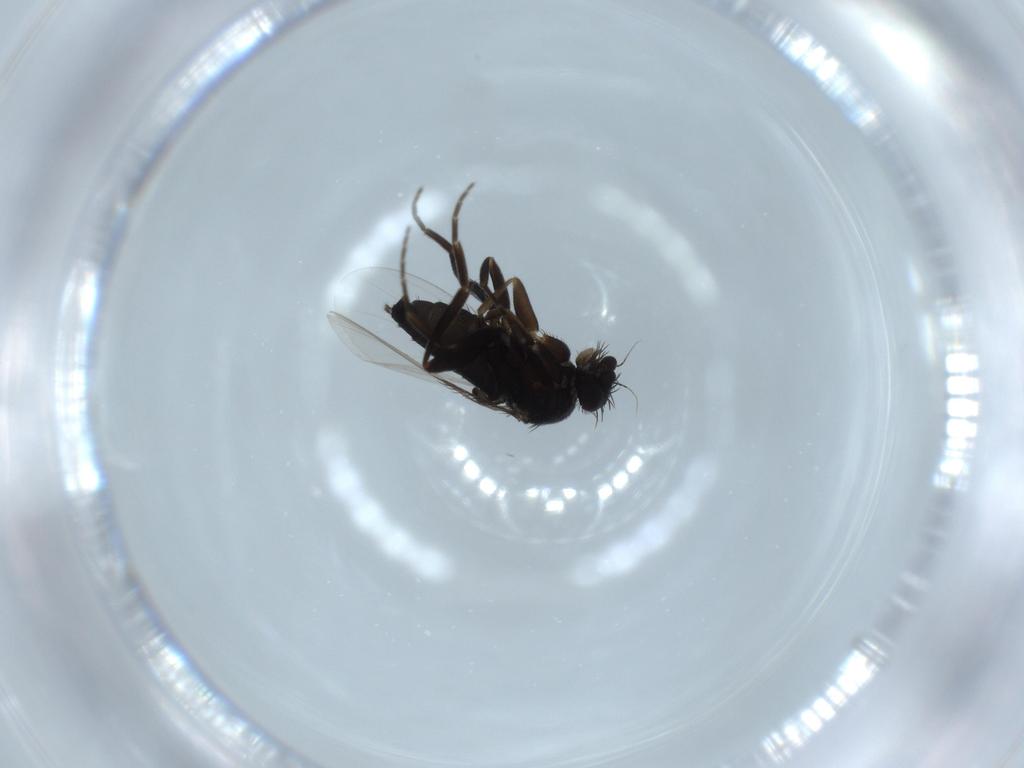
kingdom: Animalia
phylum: Arthropoda
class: Insecta
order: Diptera
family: Phoridae
